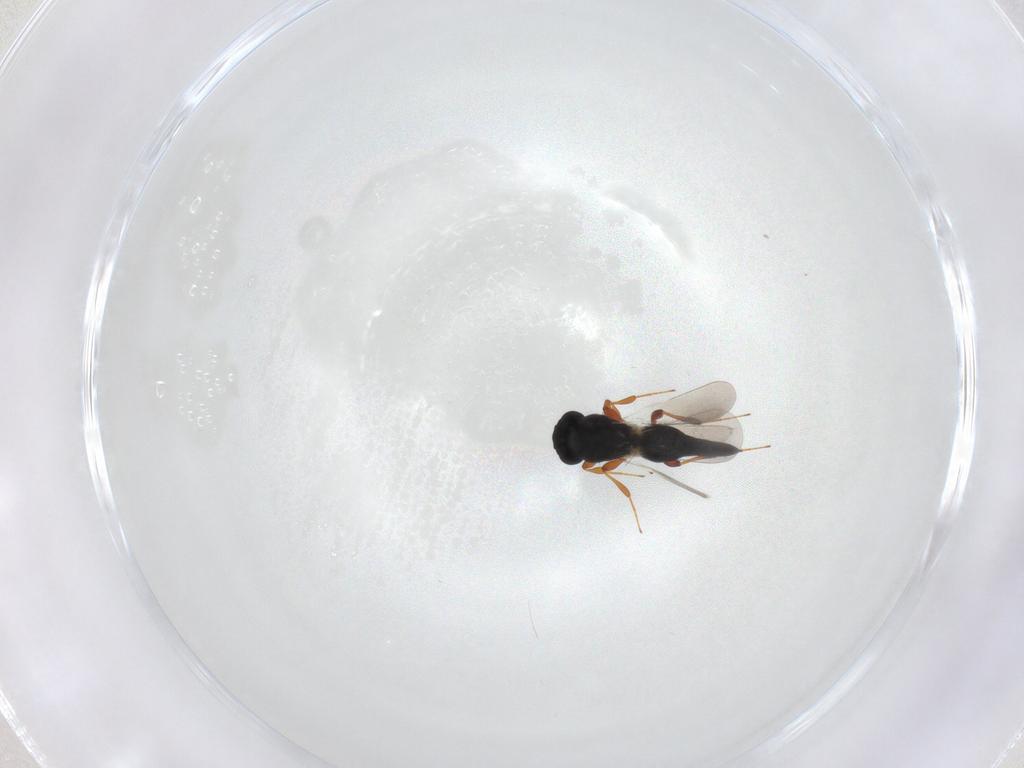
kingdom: Animalia
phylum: Arthropoda
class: Insecta
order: Hymenoptera
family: Platygastridae
